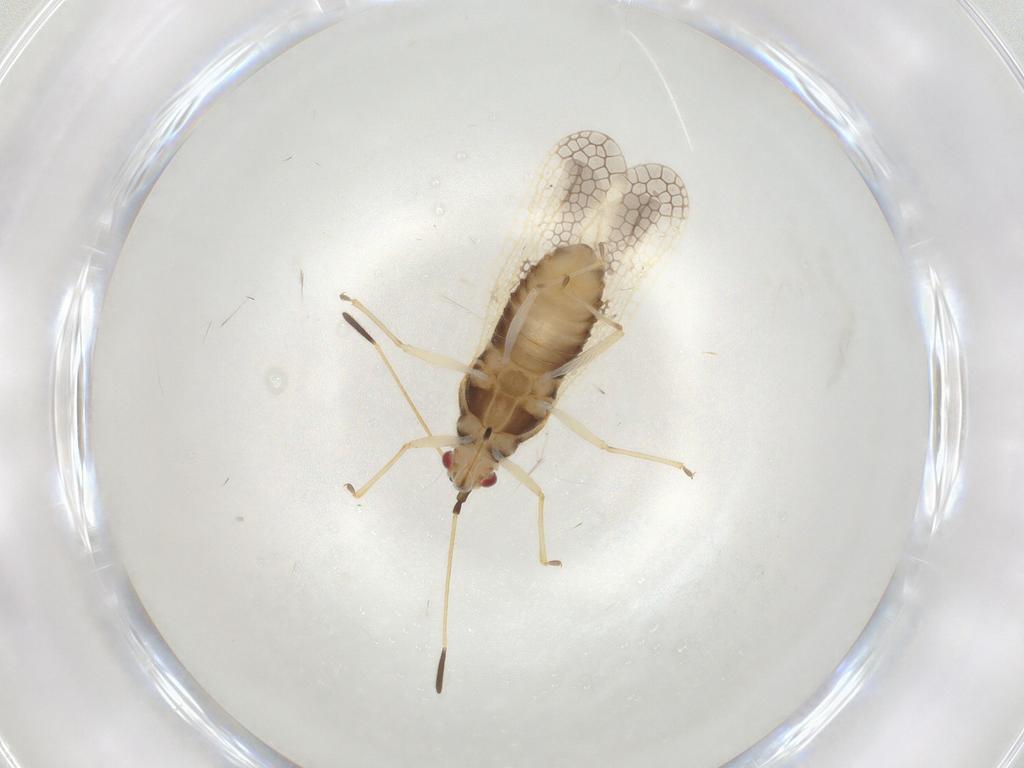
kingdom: Animalia
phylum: Arthropoda
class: Insecta
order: Hemiptera
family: Tingidae
